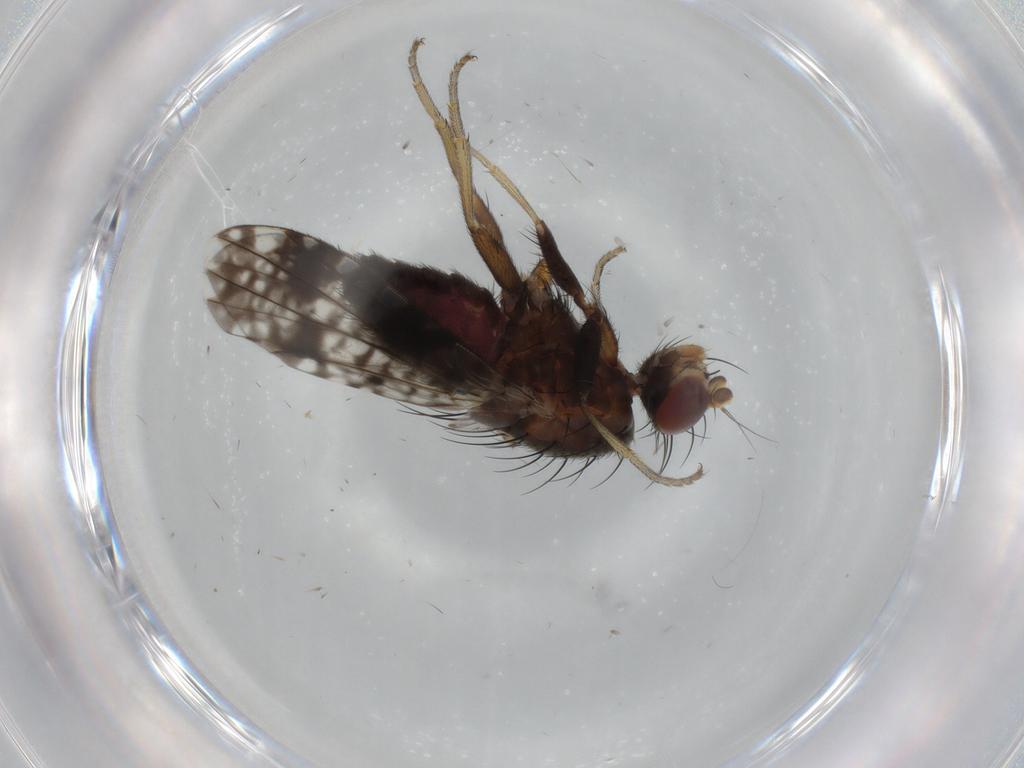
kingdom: Animalia
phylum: Arthropoda
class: Insecta
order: Diptera
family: Tephritidae
